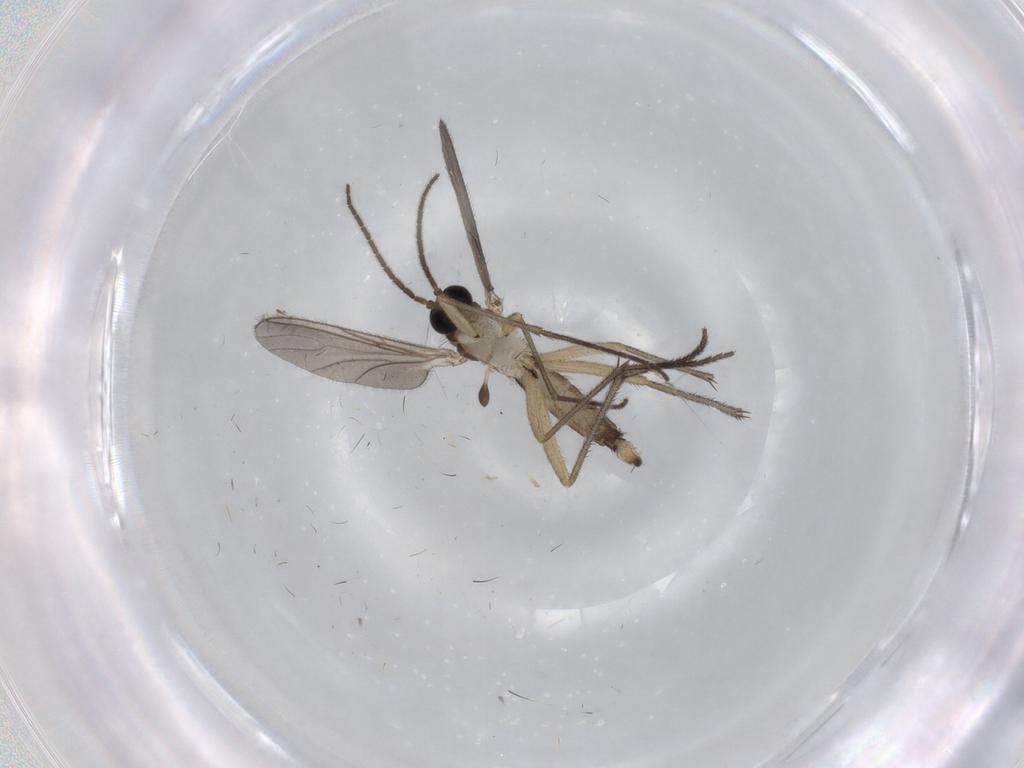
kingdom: Animalia
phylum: Arthropoda
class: Insecta
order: Diptera
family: Sciaridae
